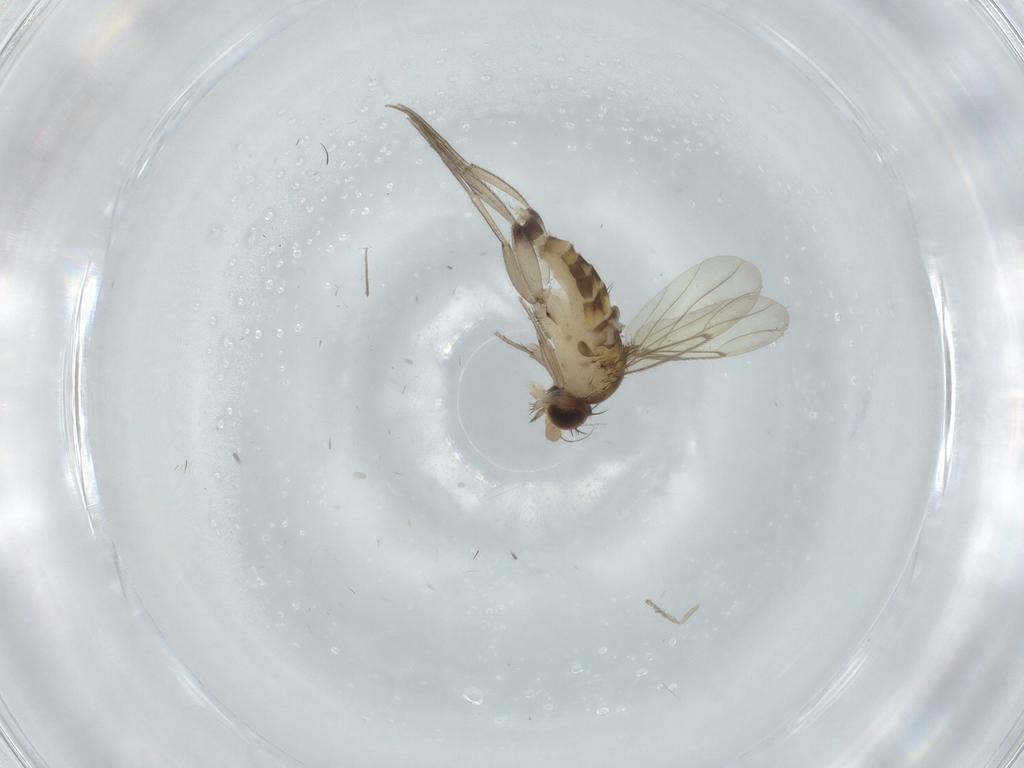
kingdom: Animalia
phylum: Arthropoda
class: Insecta
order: Diptera
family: Phoridae
